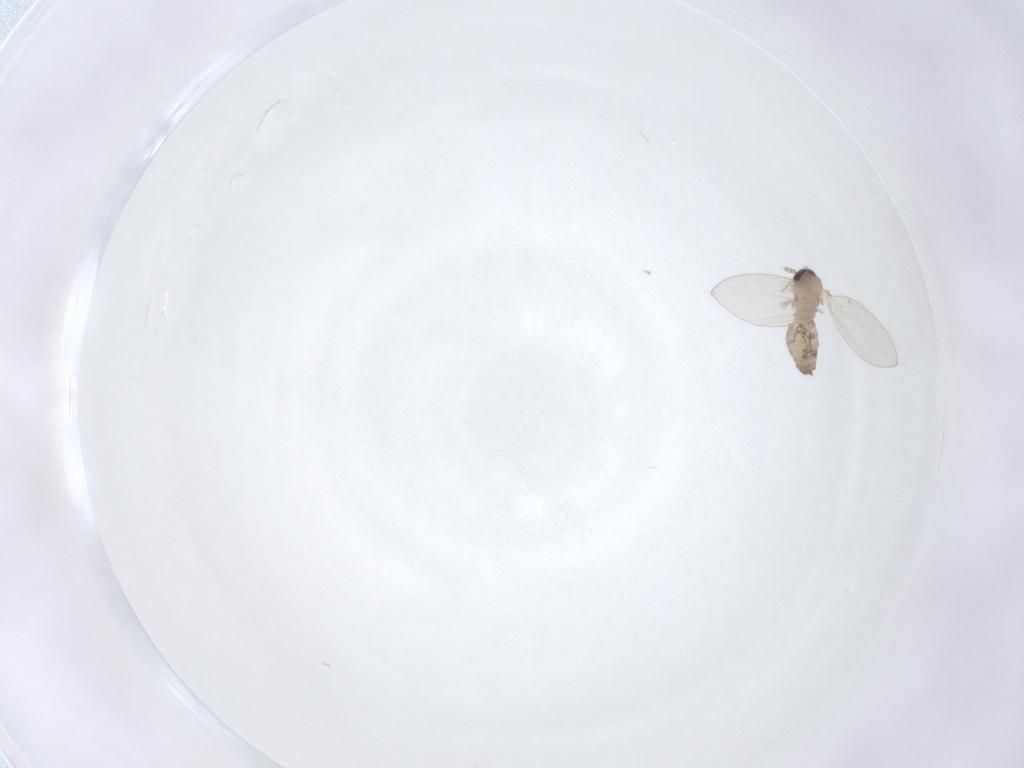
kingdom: Animalia
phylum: Arthropoda
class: Insecta
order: Diptera
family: Psychodidae
